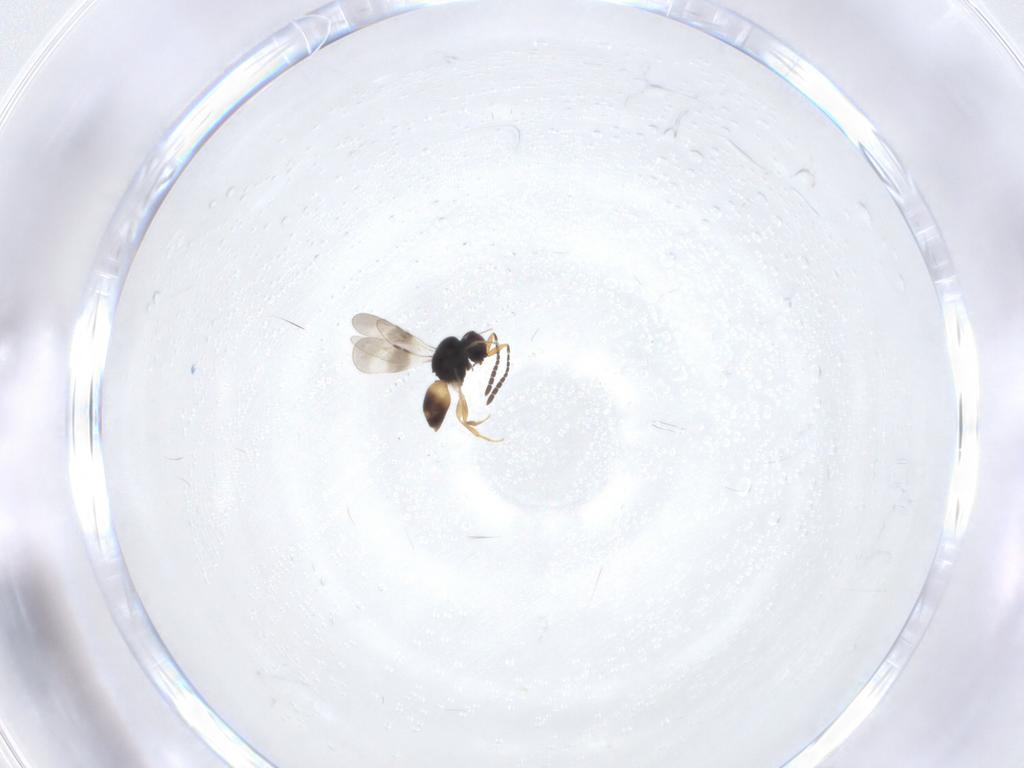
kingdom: Animalia
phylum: Arthropoda
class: Insecta
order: Hymenoptera
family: Ceraphronidae
